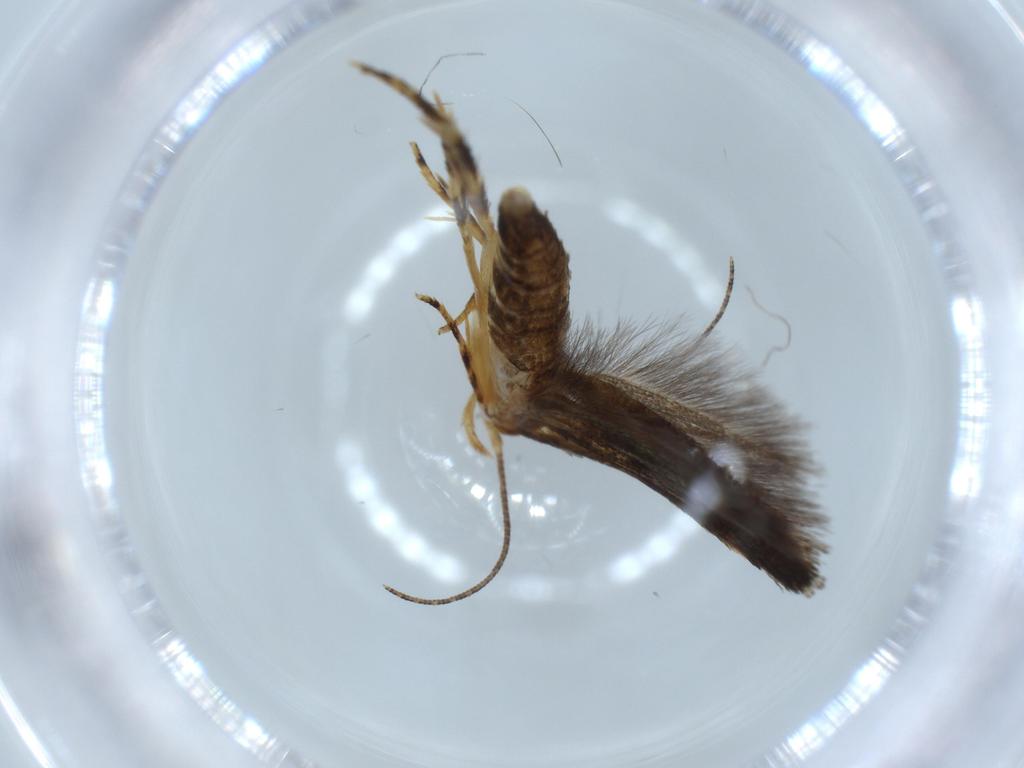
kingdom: Animalia
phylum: Arthropoda
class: Insecta
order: Lepidoptera
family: Momphidae
